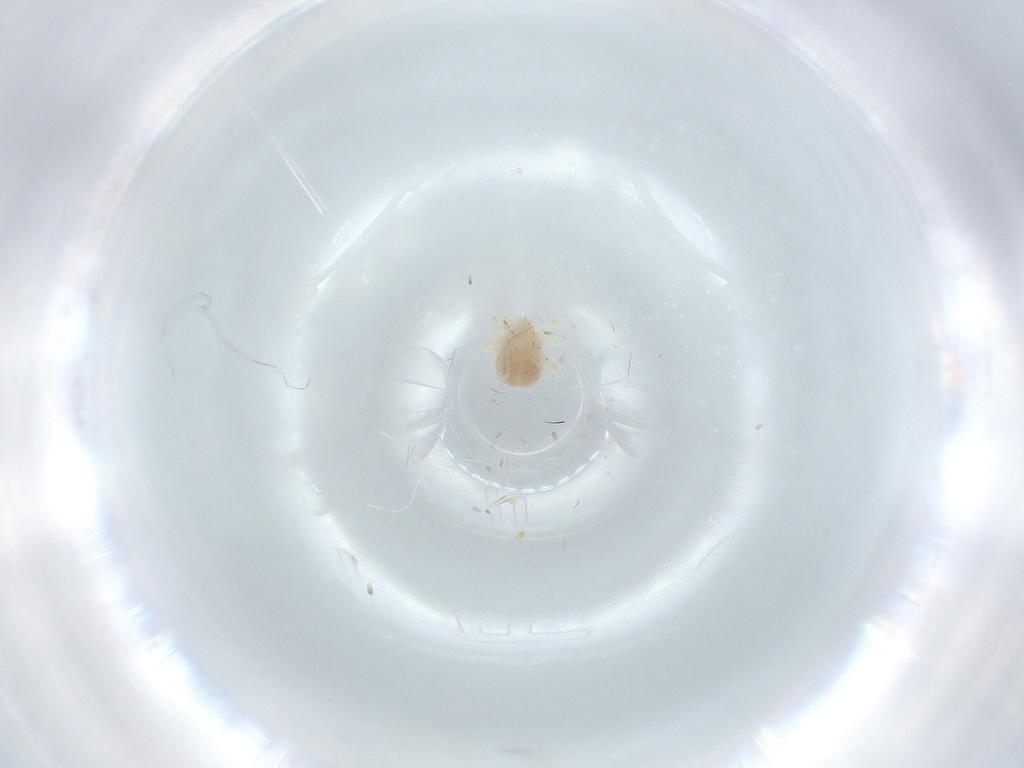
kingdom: Animalia
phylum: Arthropoda
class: Arachnida
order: Trombidiformes
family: Anystidae
